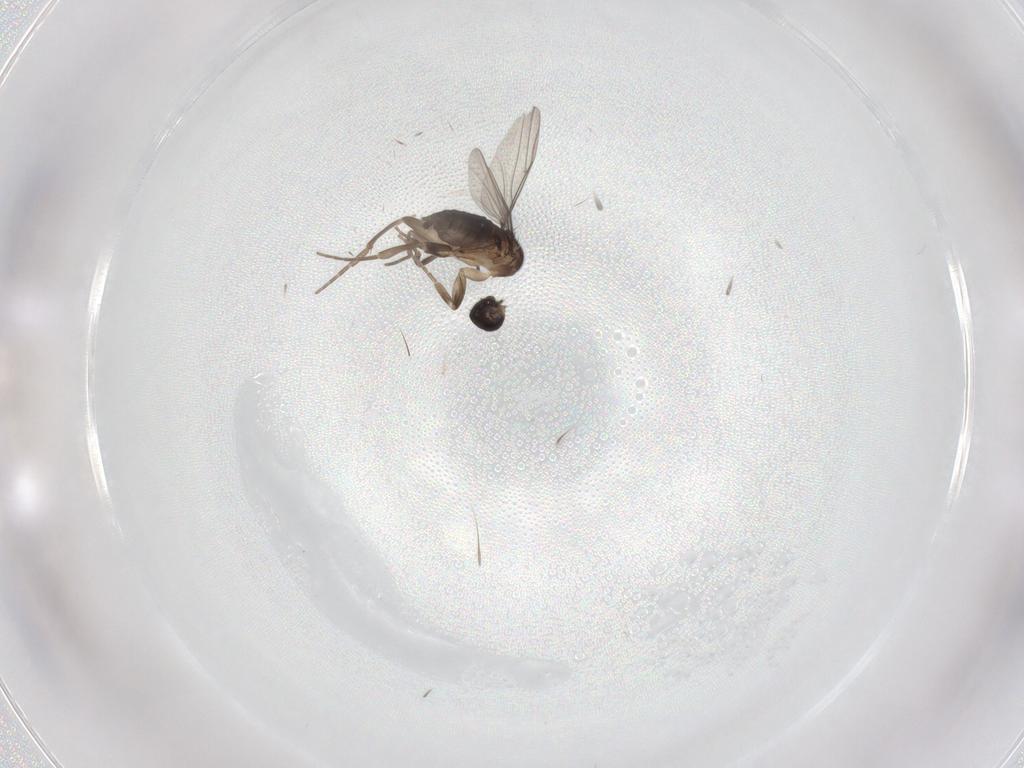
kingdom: Animalia
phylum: Arthropoda
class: Insecta
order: Diptera
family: Phoridae
